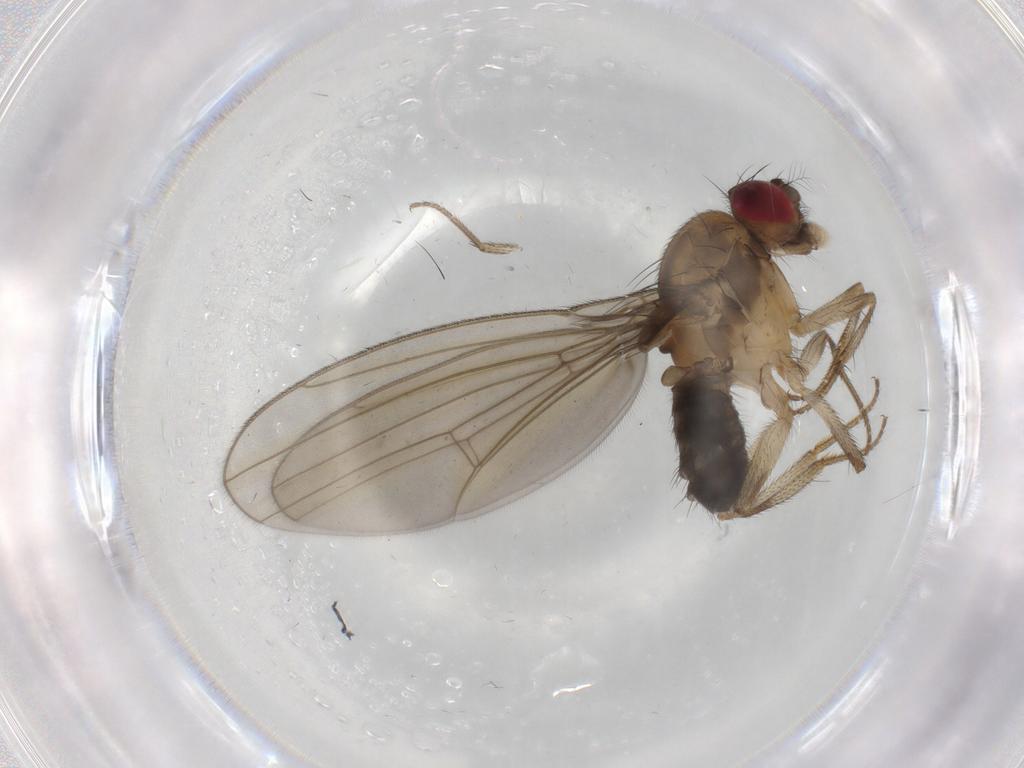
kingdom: Animalia
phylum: Arthropoda
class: Insecta
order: Diptera
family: Drosophilidae
